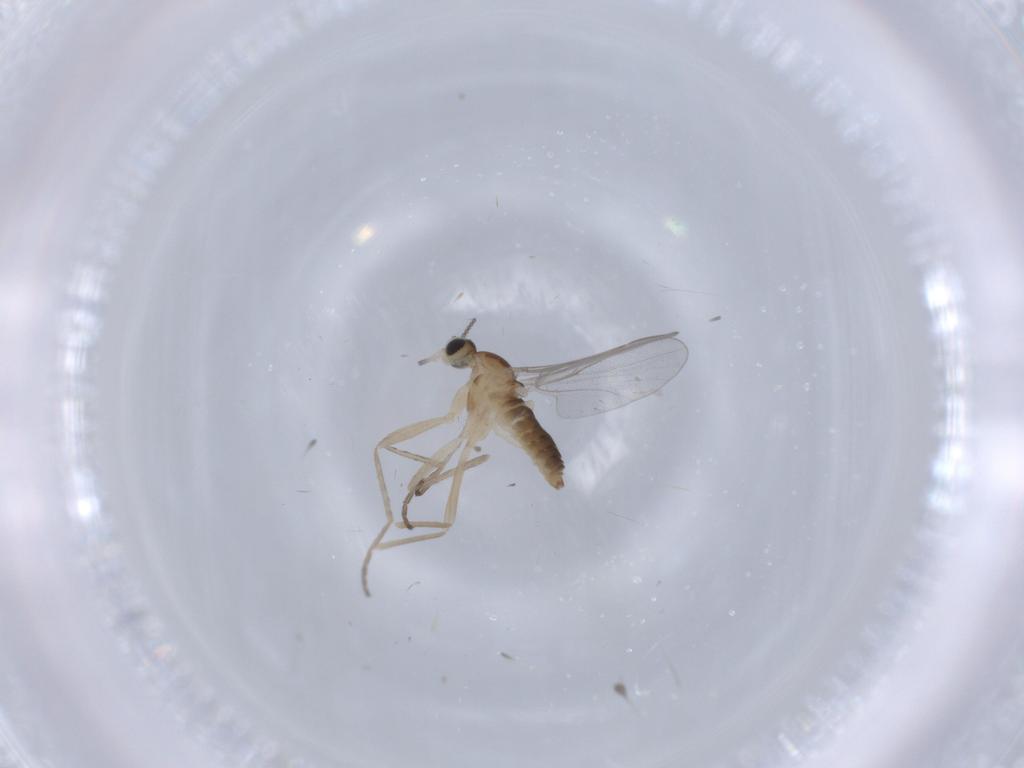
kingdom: Animalia
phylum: Arthropoda
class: Insecta
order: Diptera
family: Cecidomyiidae
